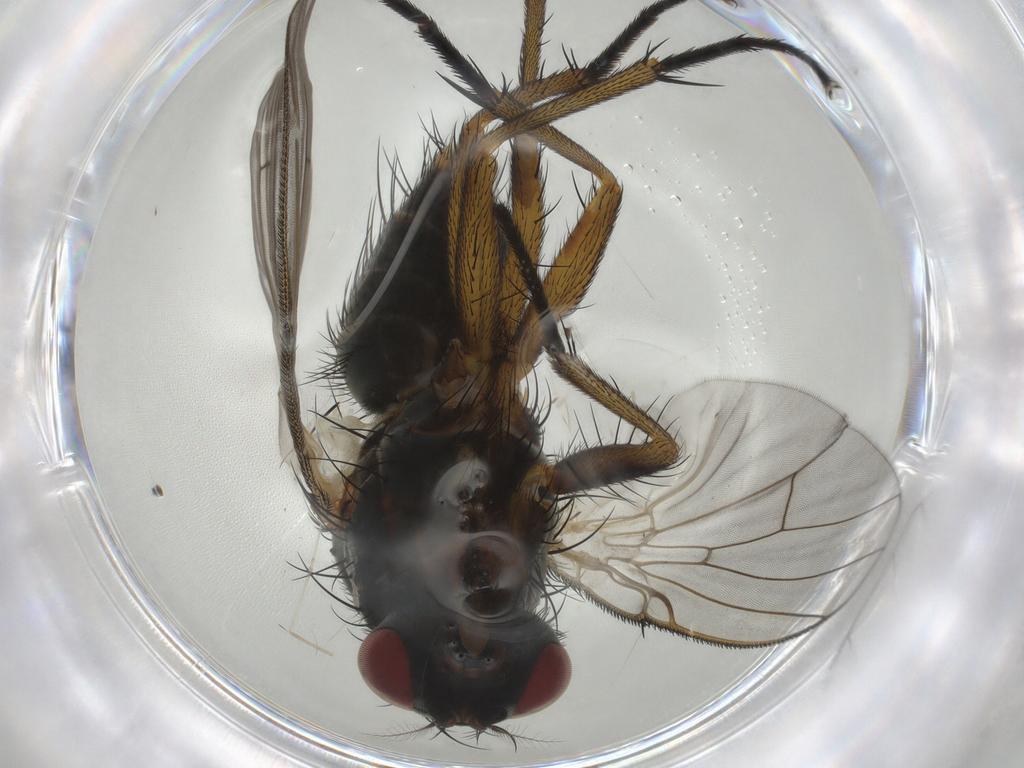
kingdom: Animalia
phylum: Arthropoda
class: Insecta
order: Diptera
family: Muscidae
